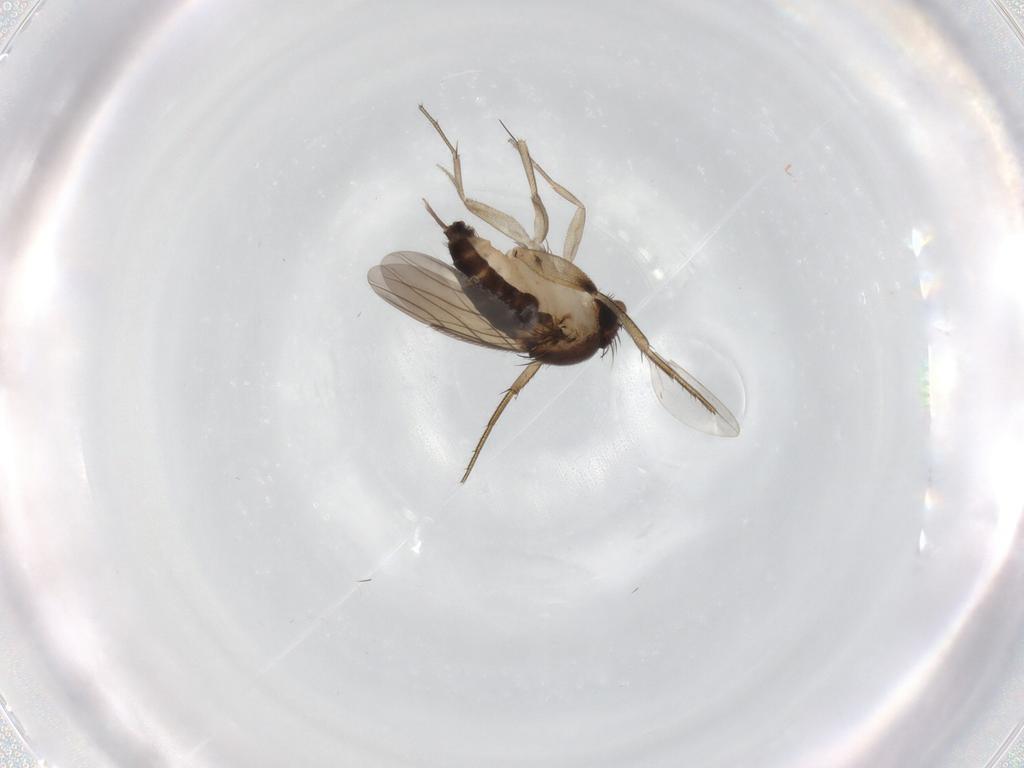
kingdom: Animalia
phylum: Arthropoda
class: Insecta
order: Diptera
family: Phoridae
